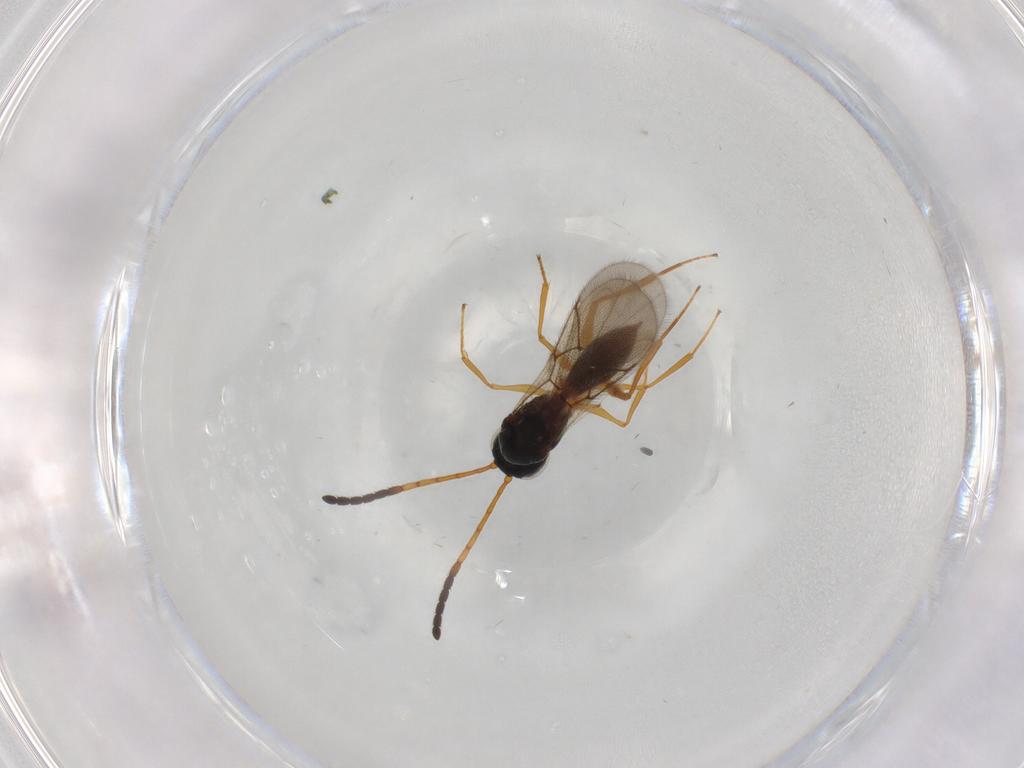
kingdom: Animalia
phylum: Arthropoda
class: Insecta
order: Hymenoptera
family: Figitidae
